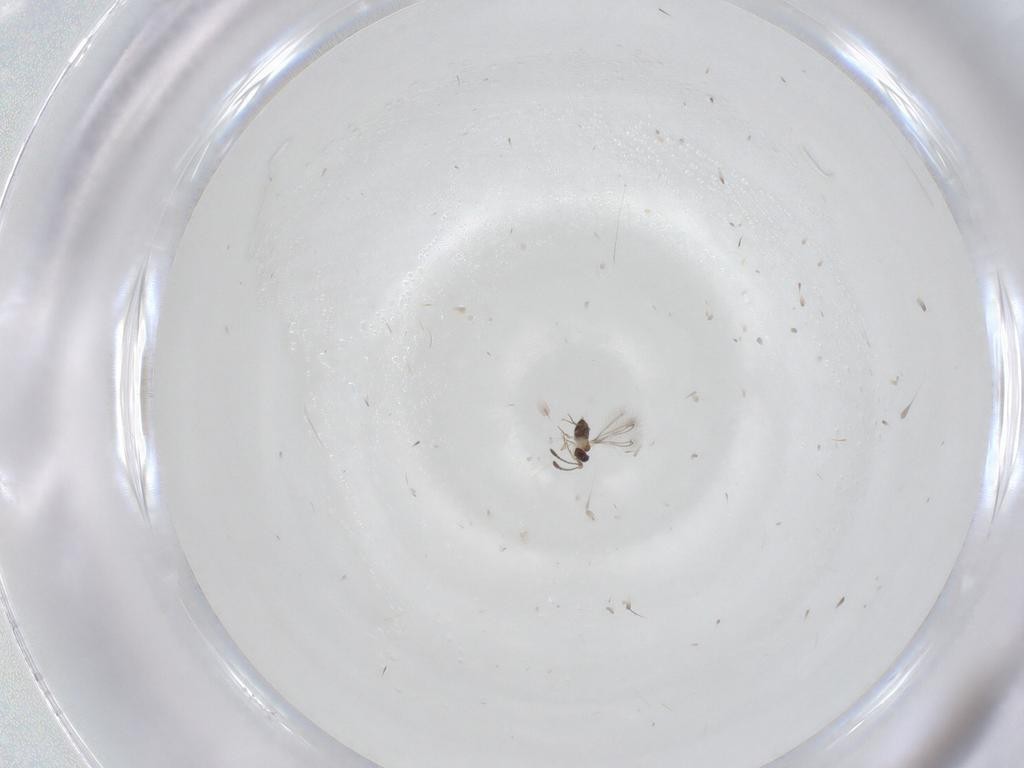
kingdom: Animalia
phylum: Arthropoda
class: Insecta
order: Hymenoptera
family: Mymaridae
